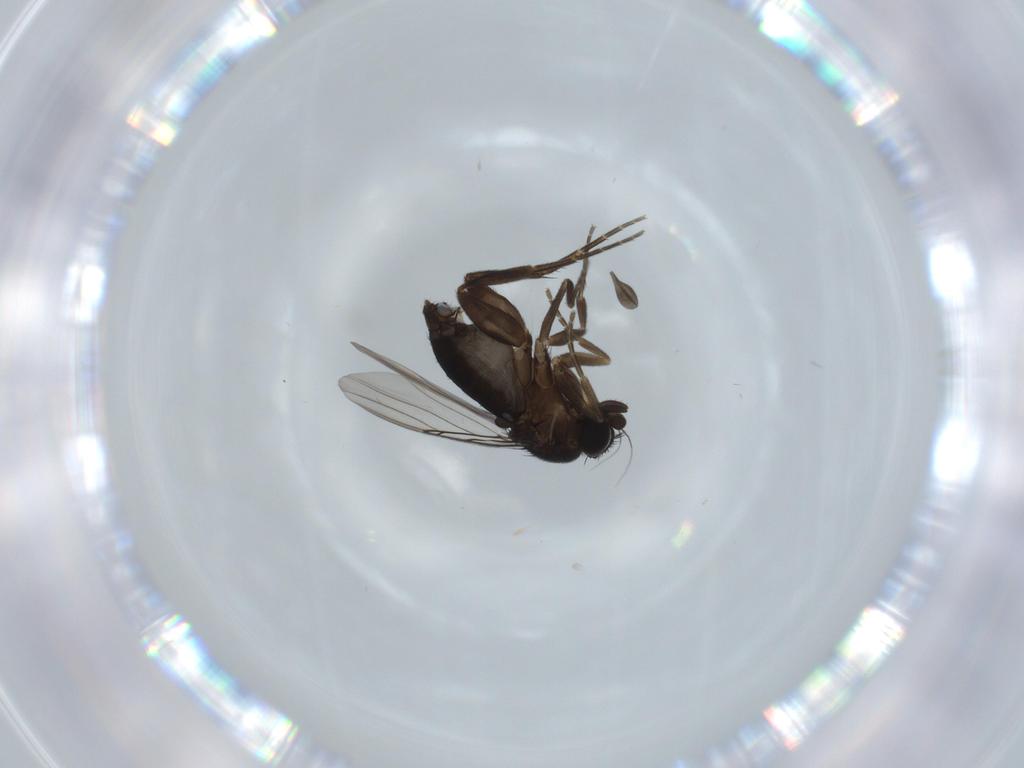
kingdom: Animalia
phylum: Arthropoda
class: Insecta
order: Diptera
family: Phoridae
